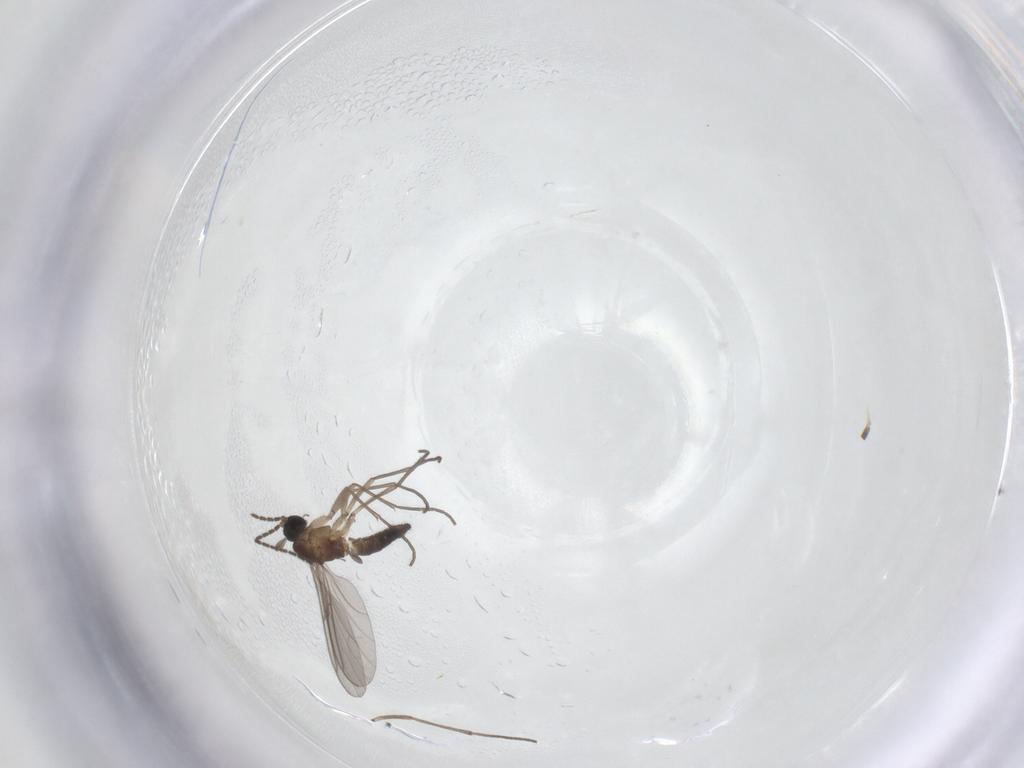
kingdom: Animalia
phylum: Arthropoda
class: Insecta
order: Diptera
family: Sciaridae
